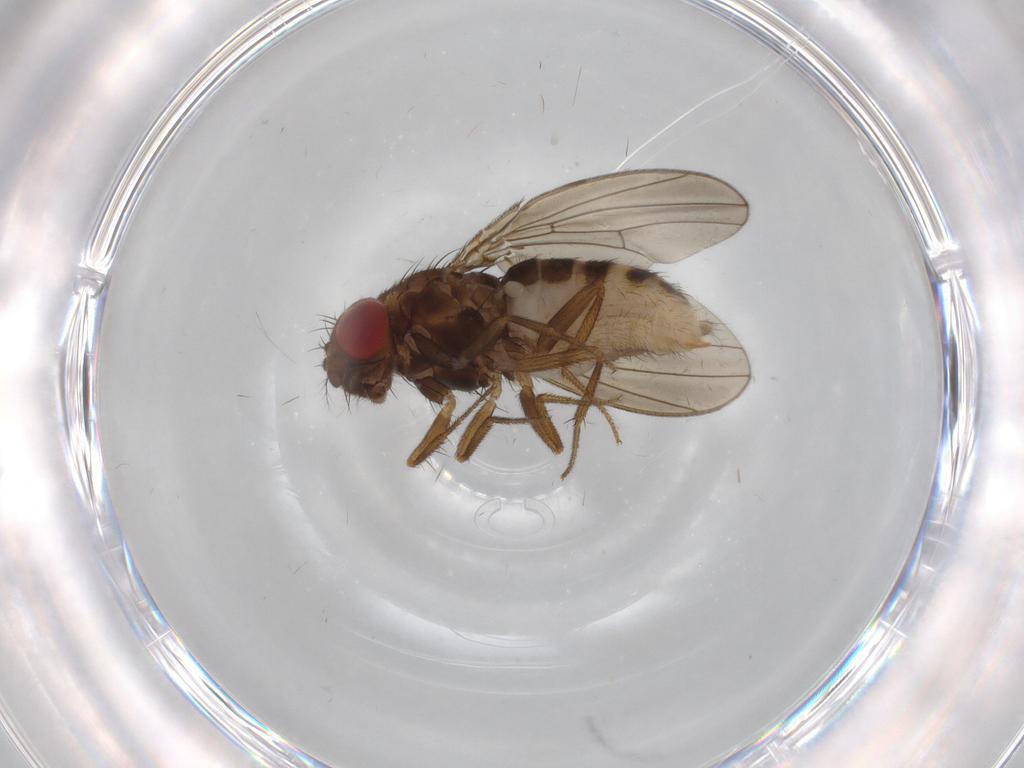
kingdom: Animalia
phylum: Arthropoda
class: Insecta
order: Diptera
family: Drosophilidae
